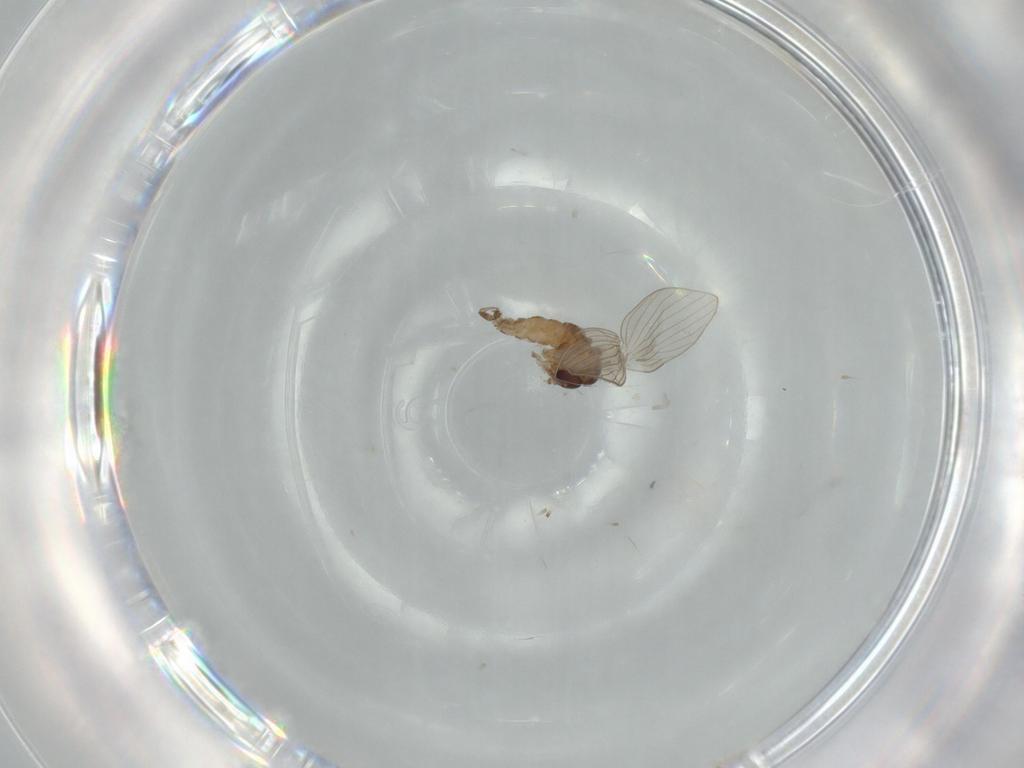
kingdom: Animalia
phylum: Arthropoda
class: Insecta
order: Diptera
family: Psychodidae
